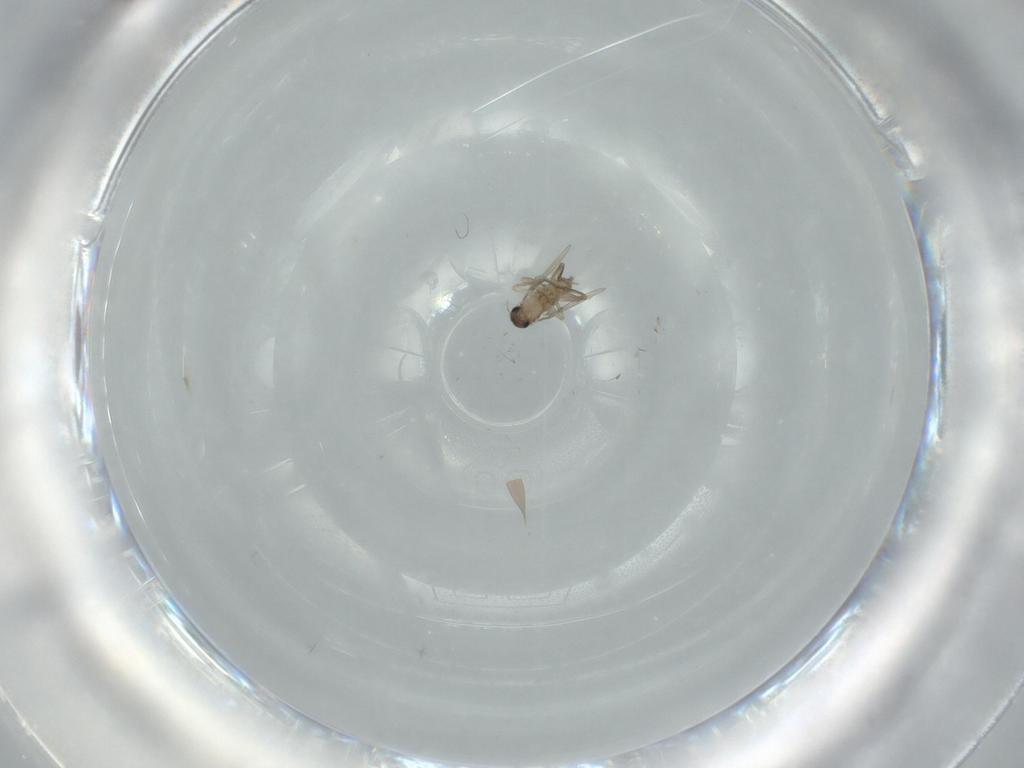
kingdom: Animalia
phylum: Arthropoda
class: Insecta
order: Diptera
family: Phoridae
